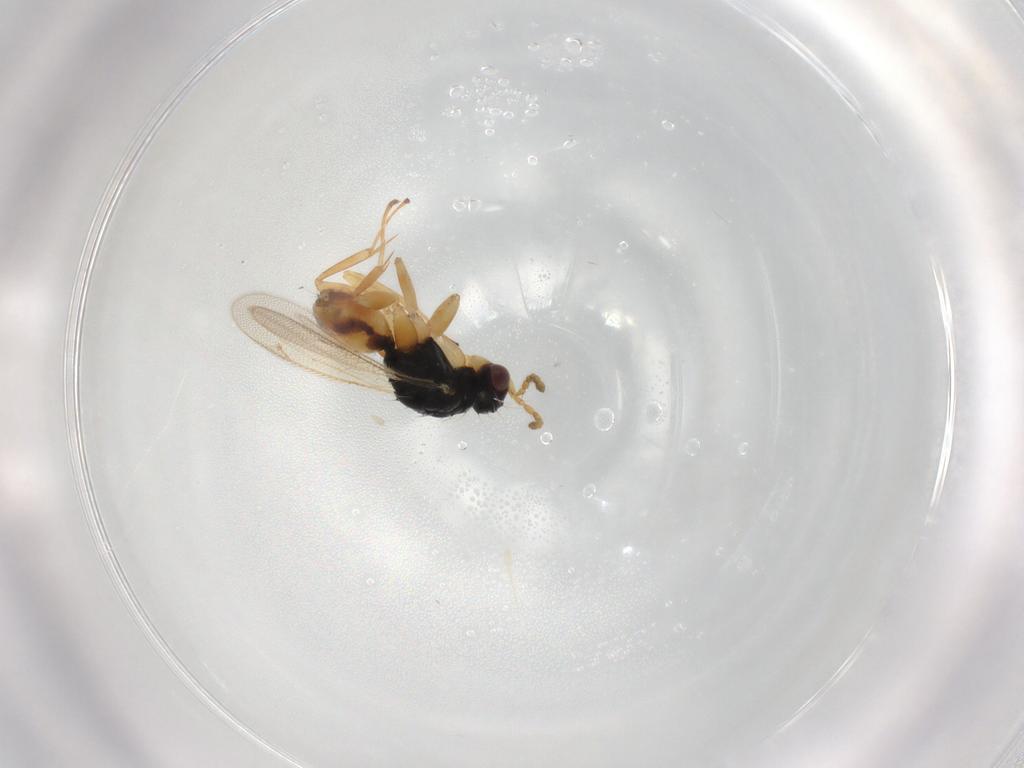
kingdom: Animalia
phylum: Arthropoda
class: Insecta
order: Hymenoptera
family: Eulophidae
